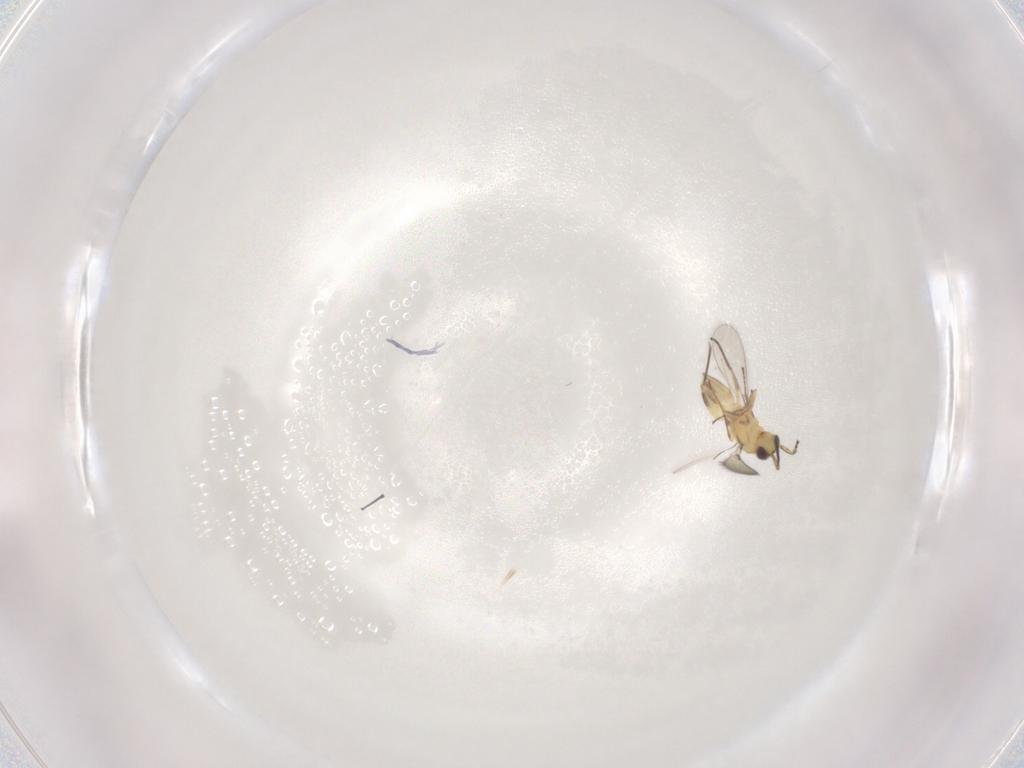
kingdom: Animalia
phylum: Arthropoda
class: Insecta
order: Hymenoptera
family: Mymaridae
